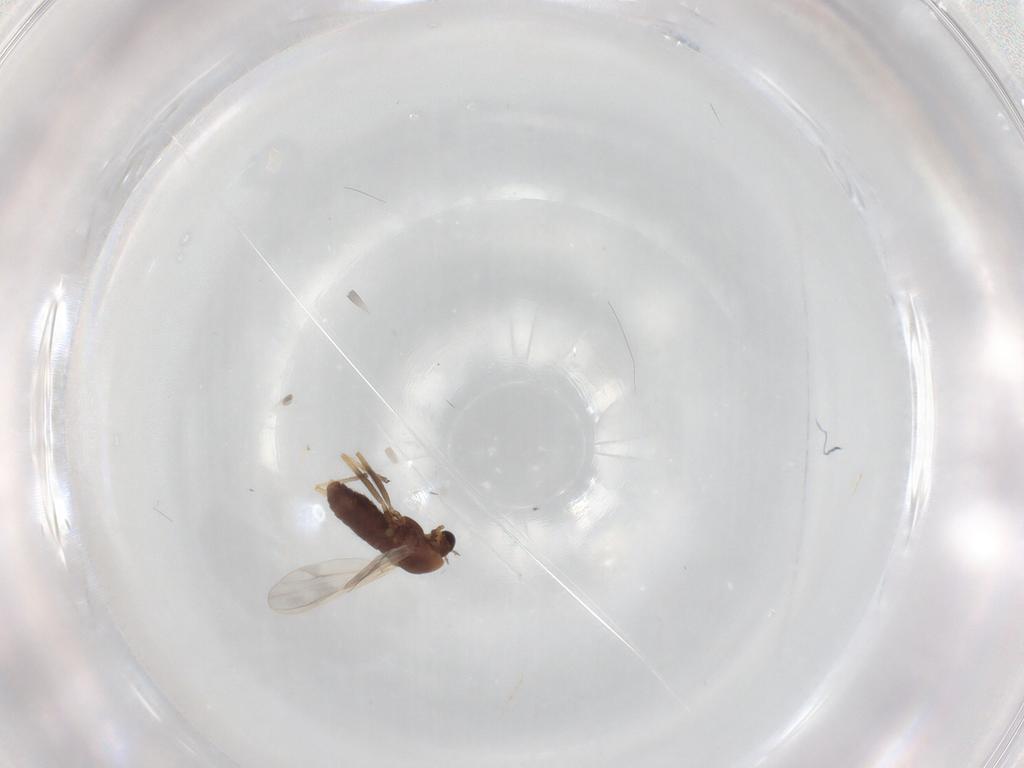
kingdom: Animalia
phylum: Arthropoda
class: Insecta
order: Diptera
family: Chironomidae
